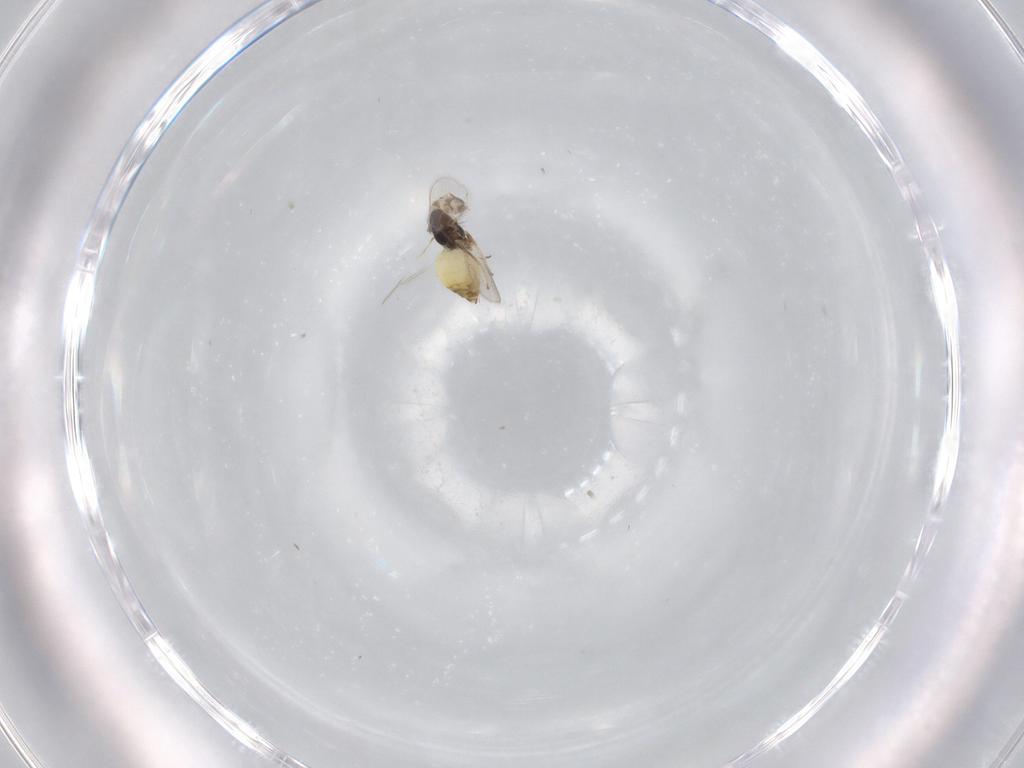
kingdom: Animalia
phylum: Arthropoda
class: Insecta
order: Hymenoptera
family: Mymaridae
